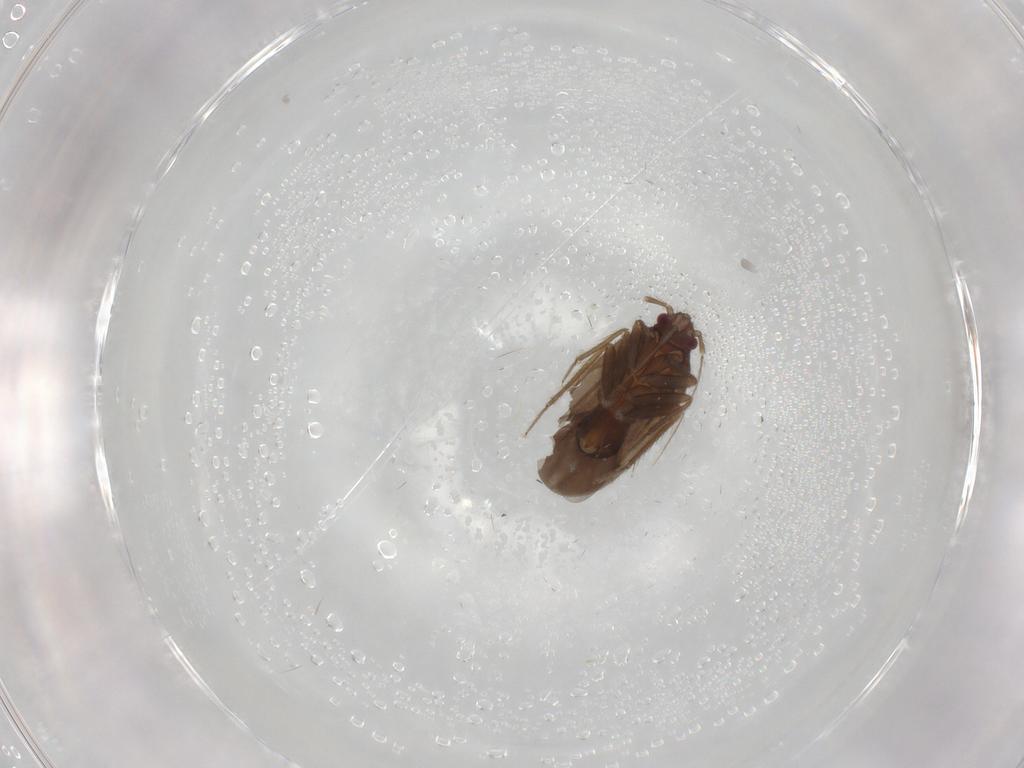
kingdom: Animalia
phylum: Arthropoda
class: Insecta
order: Hemiptera
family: Ceratocombidae
